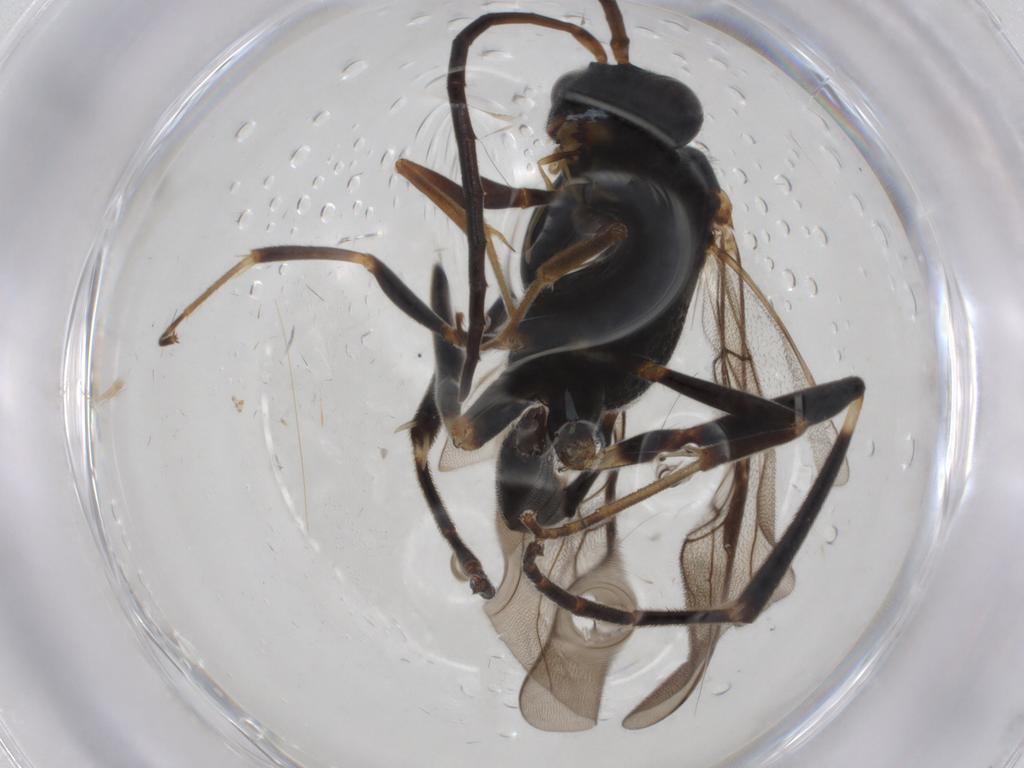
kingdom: Animalia
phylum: Arthropoda
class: Insecta
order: Hymenoptera
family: Evaniidae
